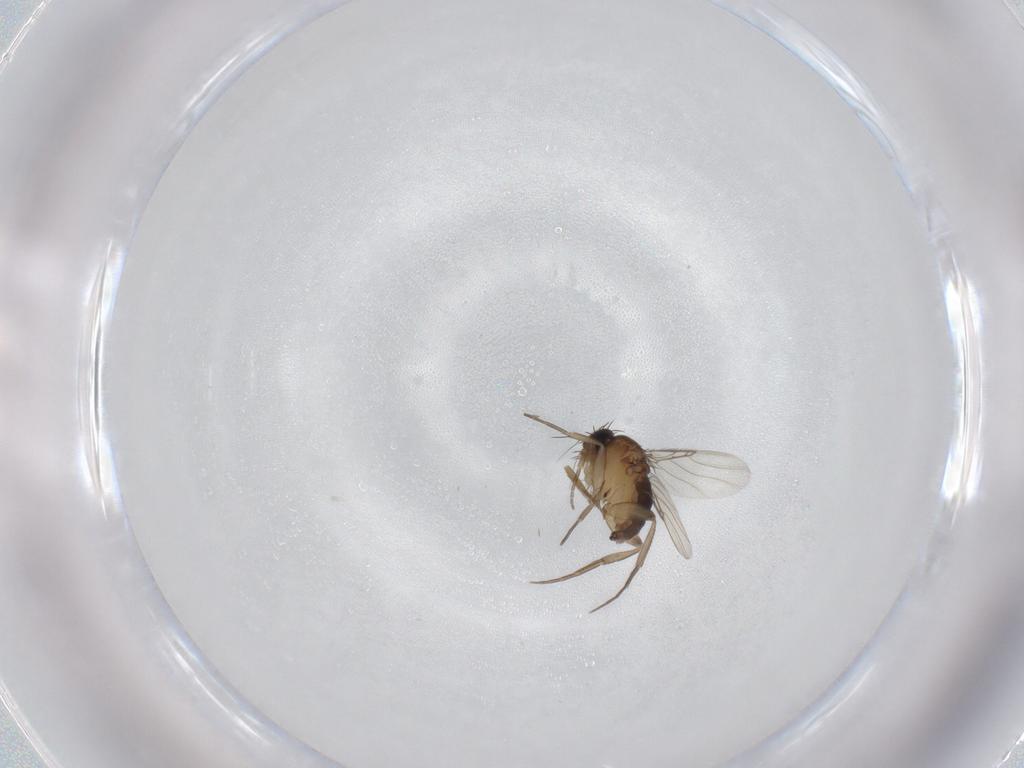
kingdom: Animalia
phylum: Arthropoda
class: Insecta
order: Diptera
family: Phoridae
